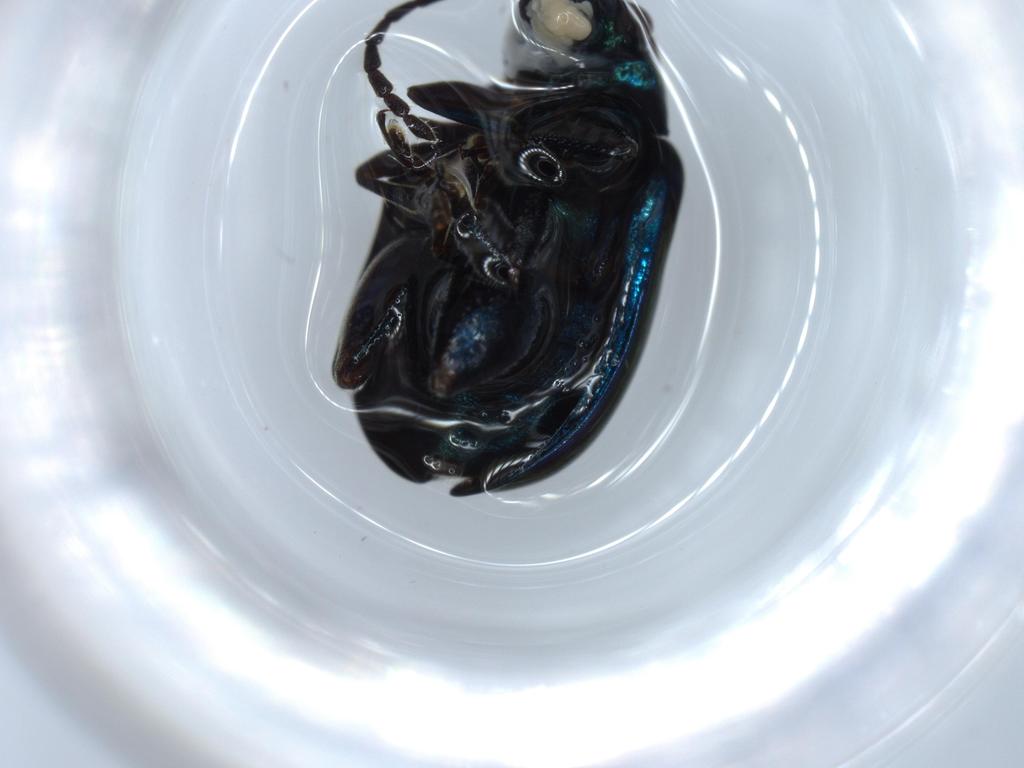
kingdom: Animalia
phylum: Arthropoda
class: Insecta
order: Coleoptera
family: Chrysomelidae
